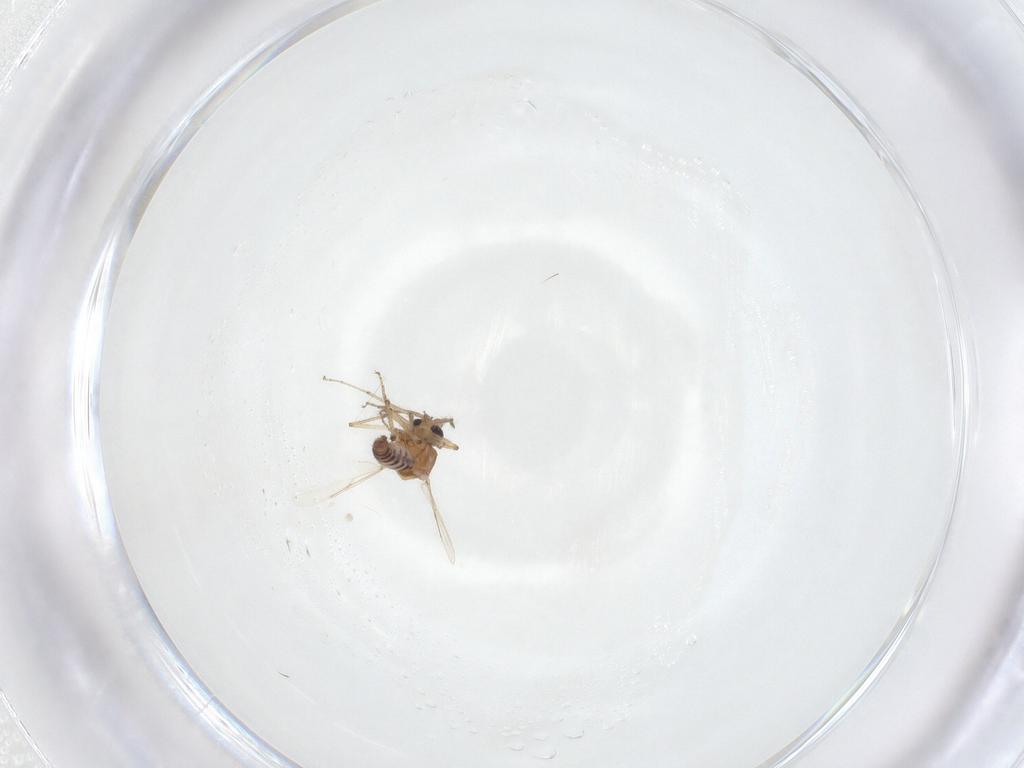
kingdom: Animalia
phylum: Arthropoda
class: Insecta
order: Diptera
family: Ceratopogonidae
